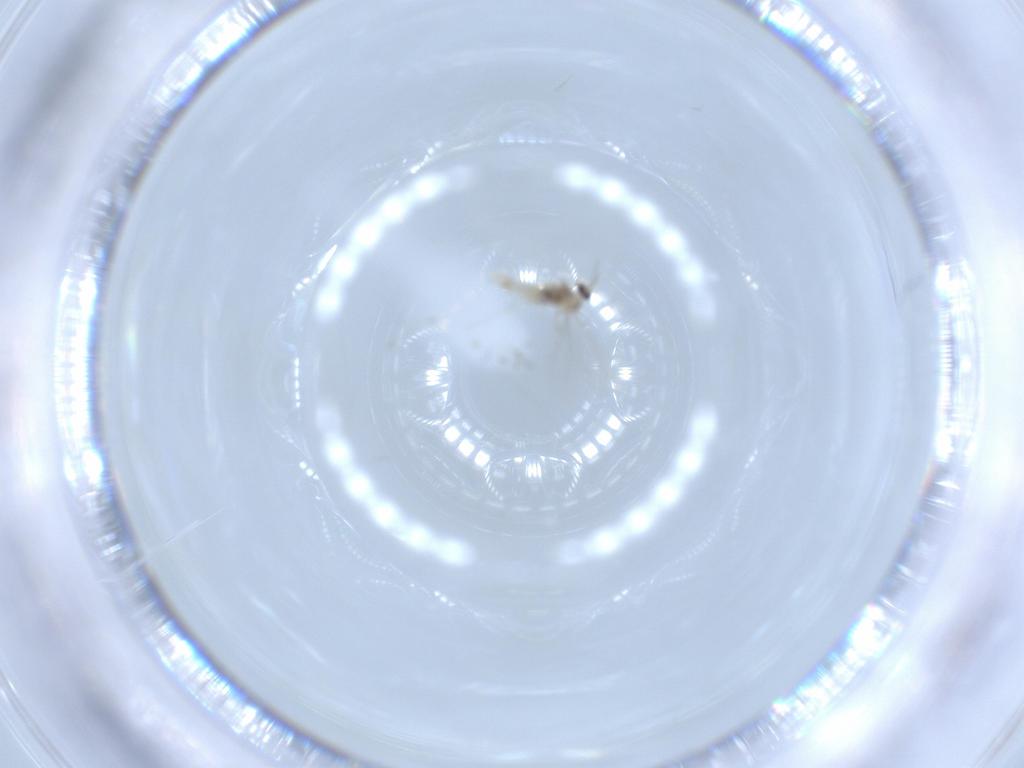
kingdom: Animalia
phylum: Arthropoda
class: Insecta
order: Diptera
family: Cecidomyiidae
